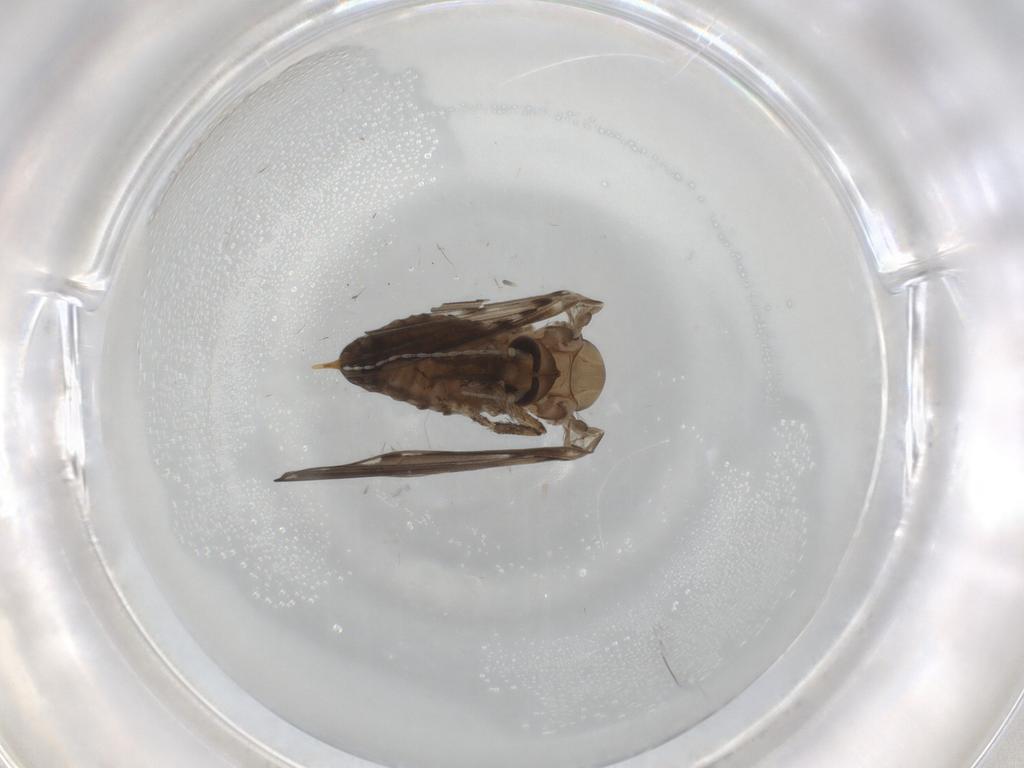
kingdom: Animalia
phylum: Arthropoda
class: Insecta
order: Diptera
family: Psychodidae
